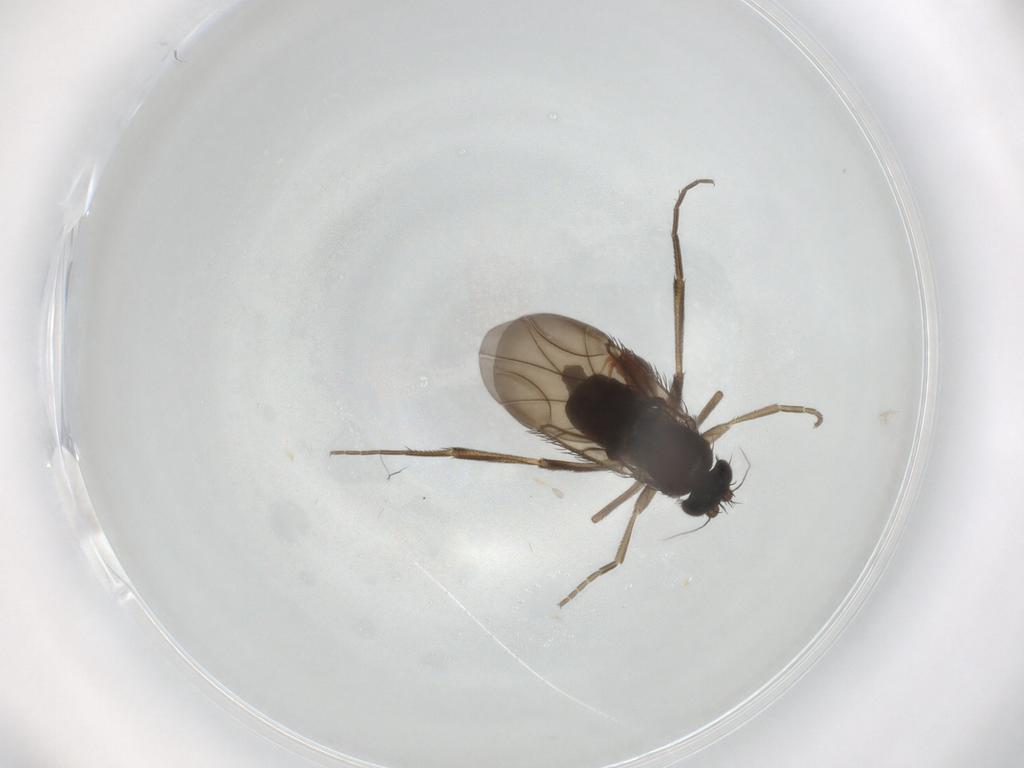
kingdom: Animalia
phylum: Arthropoda
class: Insecta
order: Diptera
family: Phoridae
